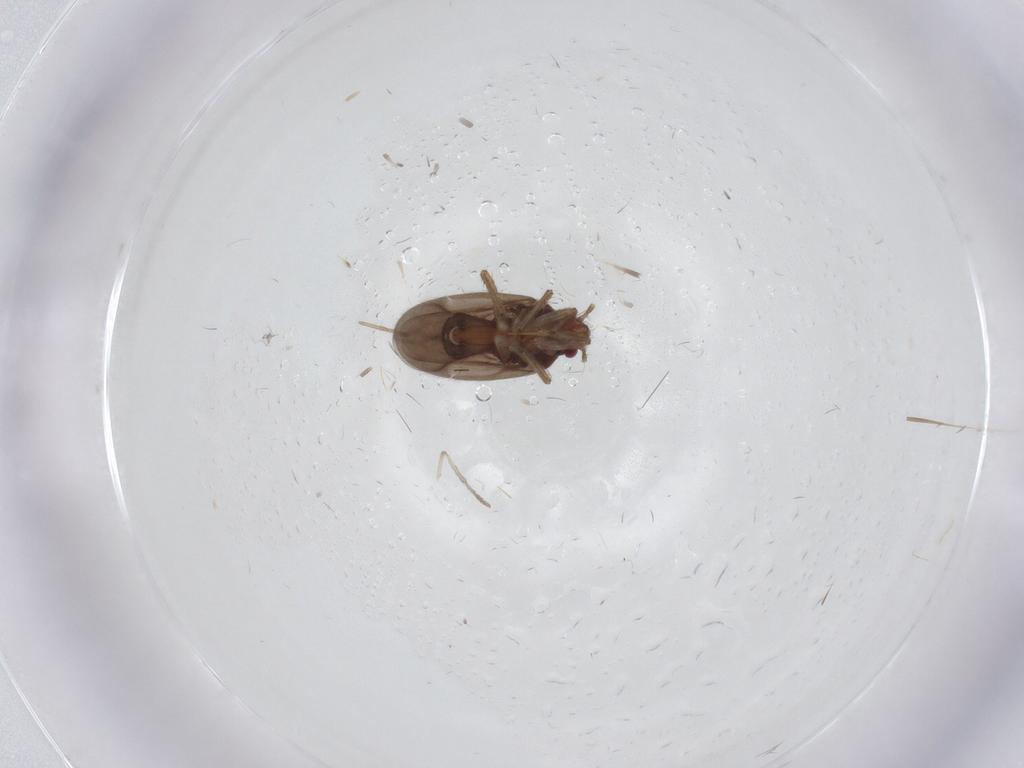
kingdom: Animalia
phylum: Arthropoda
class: Insecta
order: Hemiptera
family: Ceratocombidae
